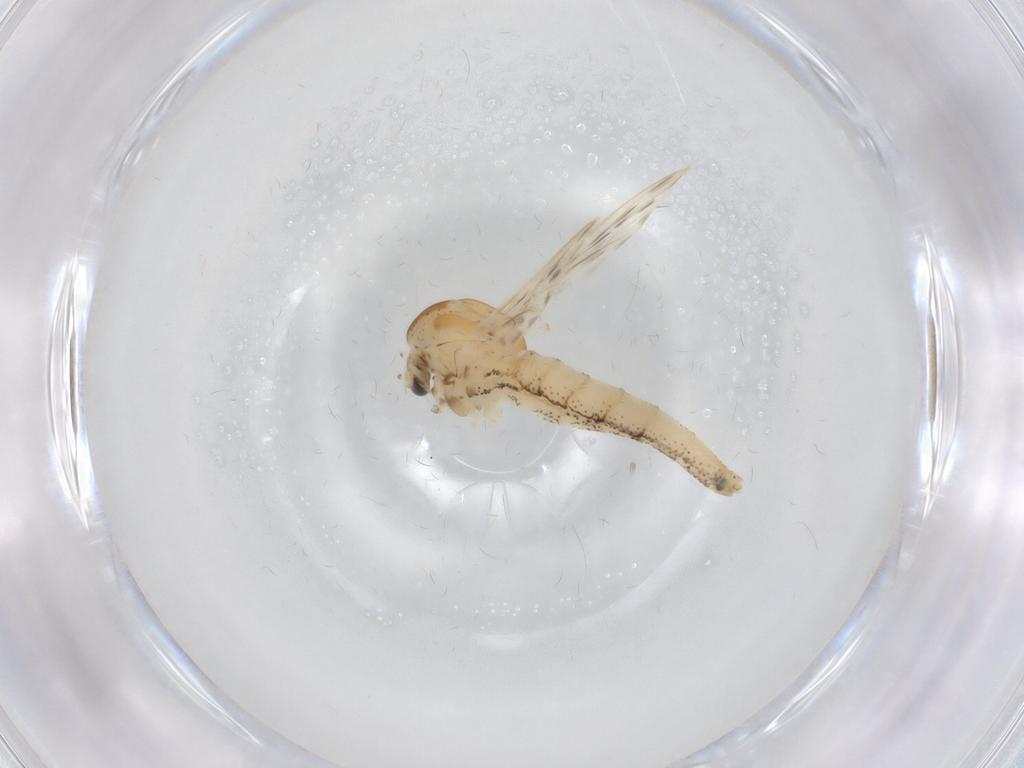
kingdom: Animalia
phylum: Arthropoda
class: Insecta
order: Diptera
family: Chaoboridae
